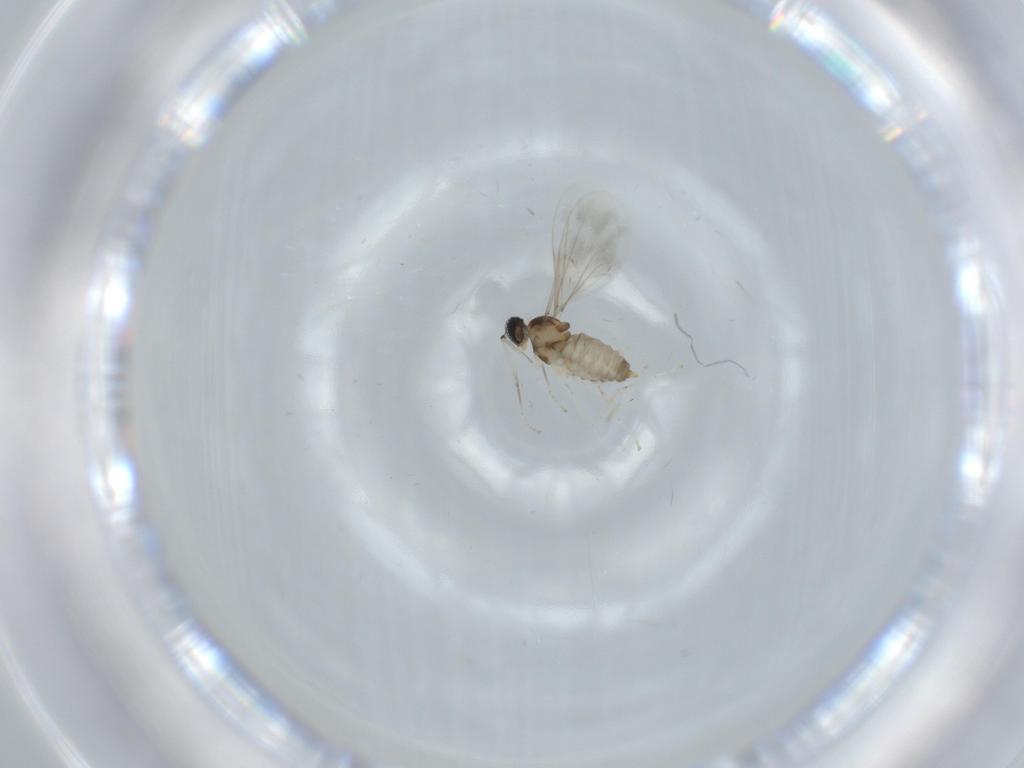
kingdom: Animalia
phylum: Arthropoda
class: Insecta
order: Diptera
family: Cecidomyiidae
